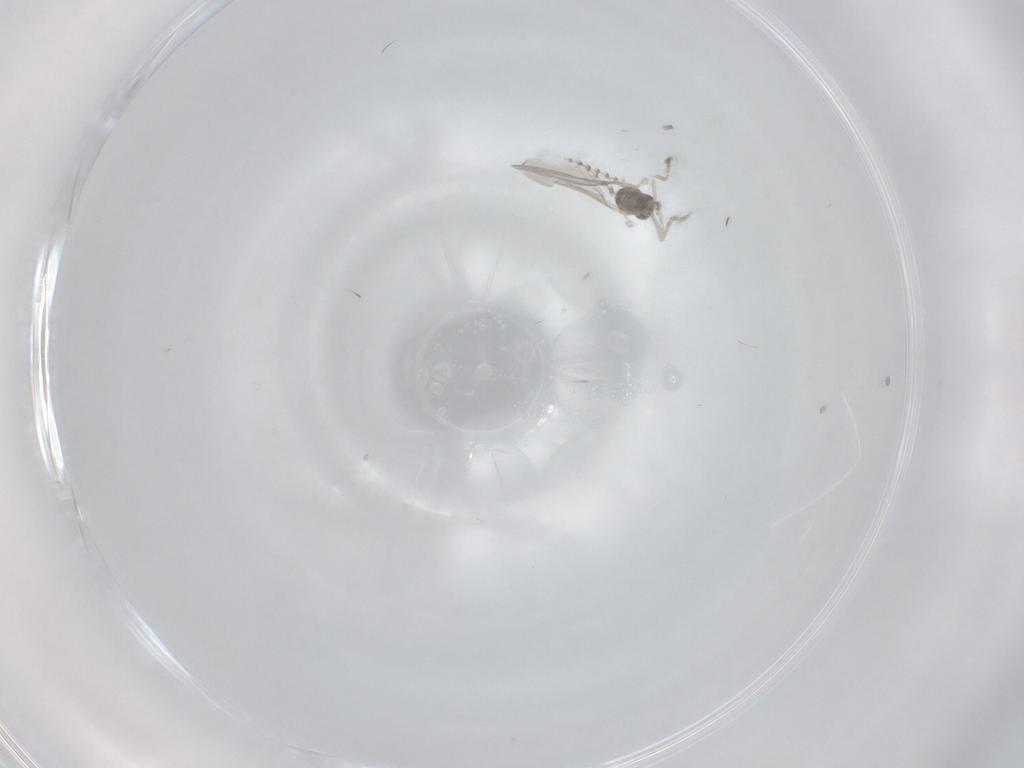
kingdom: Animalia
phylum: Arthropoda
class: Insecta
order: Diptera
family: Cecidomyiidae
